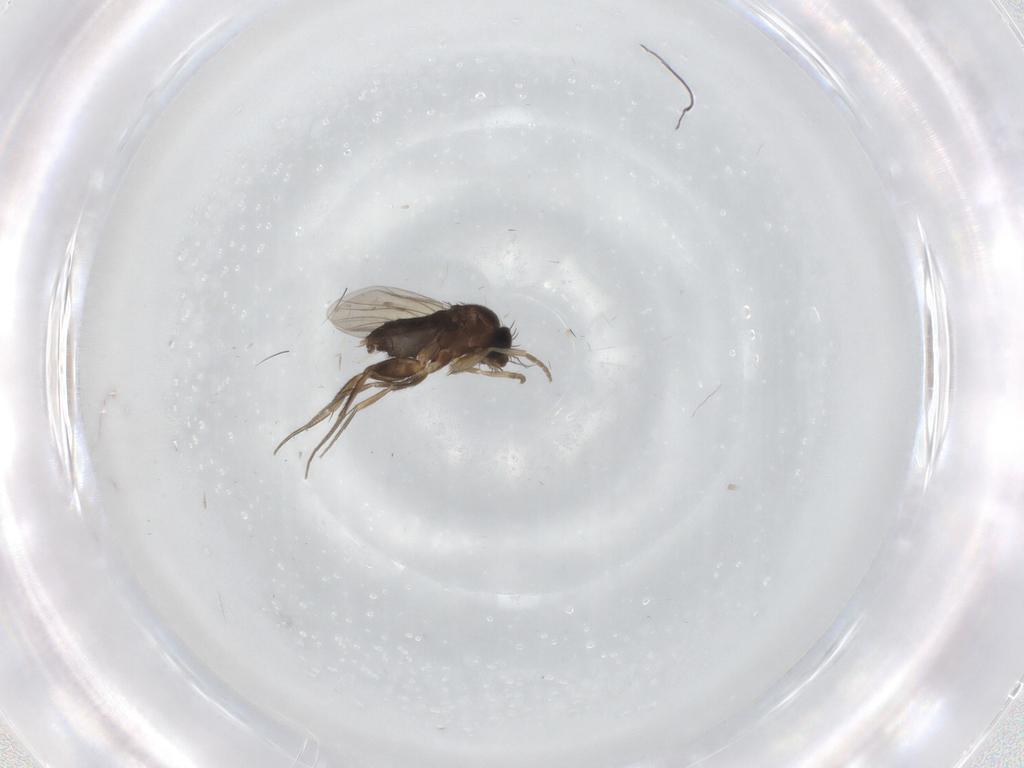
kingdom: Animalia
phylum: Arthropoda
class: Insecta
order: Diptera
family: Phoridae
